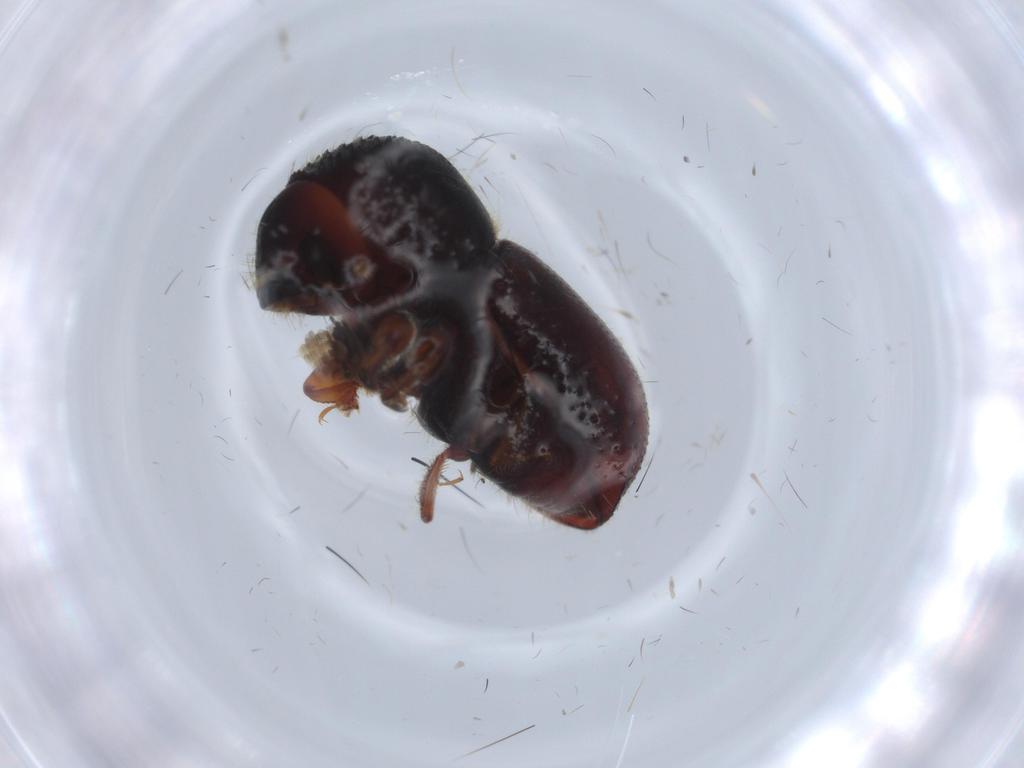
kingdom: Animalia
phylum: Arthropoda
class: Insecta
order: Coleoptera
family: Curculionidae
